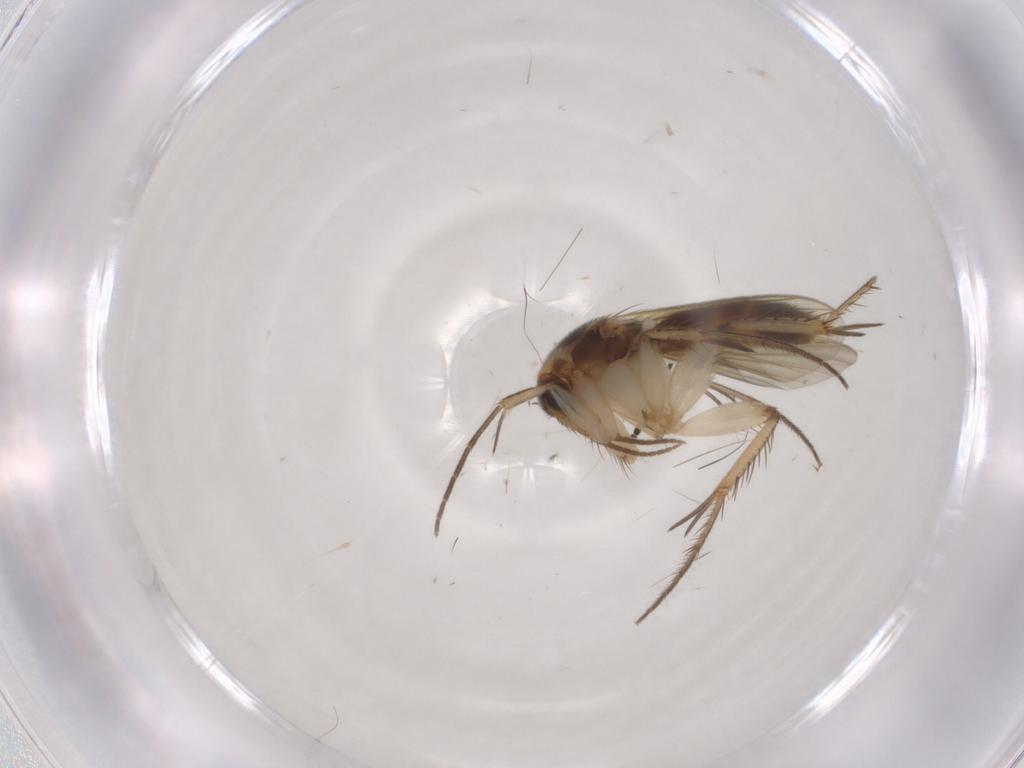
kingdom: Animalia
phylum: Arthropoda
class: Insecta
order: Diptera
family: Mycetophilidae
